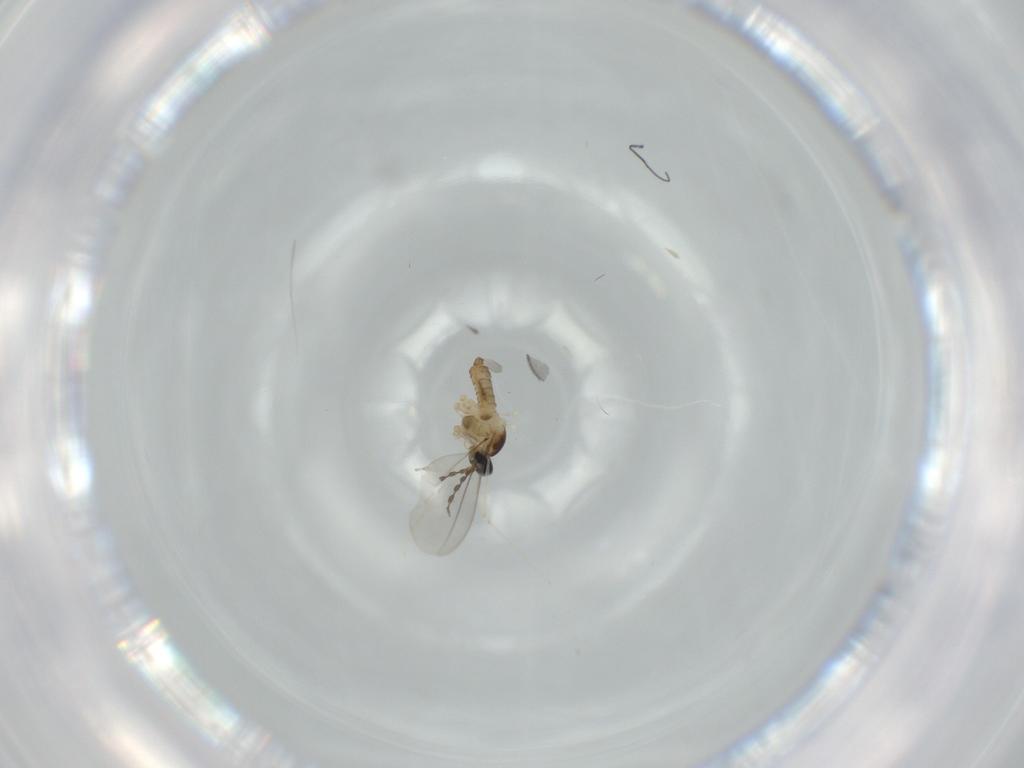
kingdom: Animalia
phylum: Arthropoda
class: Insecta
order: Diptera
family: Cecidomyiidae
